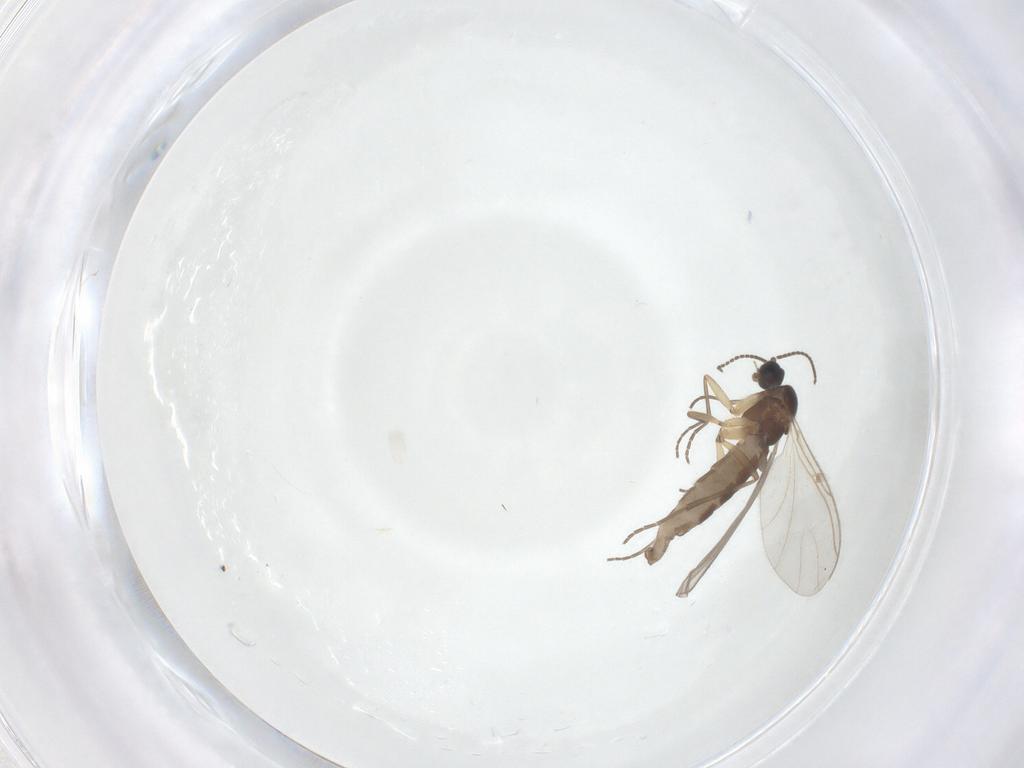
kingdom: Animalia
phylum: Arthropoda
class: Insecta
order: Diptera
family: Sciaridae
